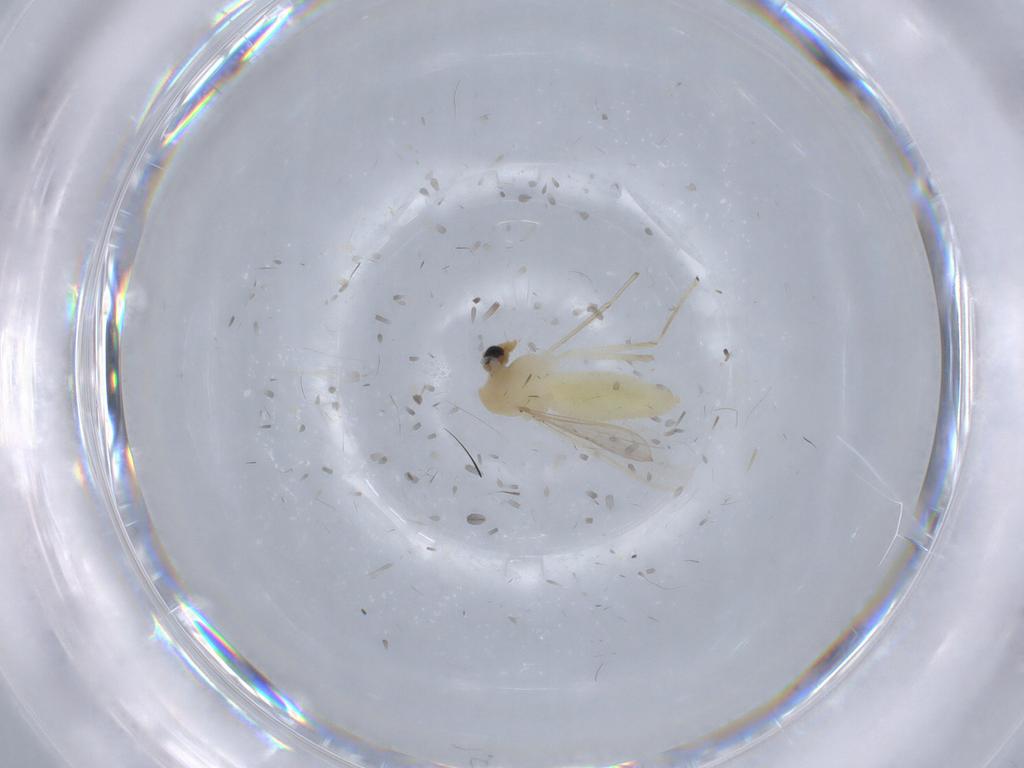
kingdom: Animalia
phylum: Arthropoda
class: Insecta
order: Diptera
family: Chironomidae
